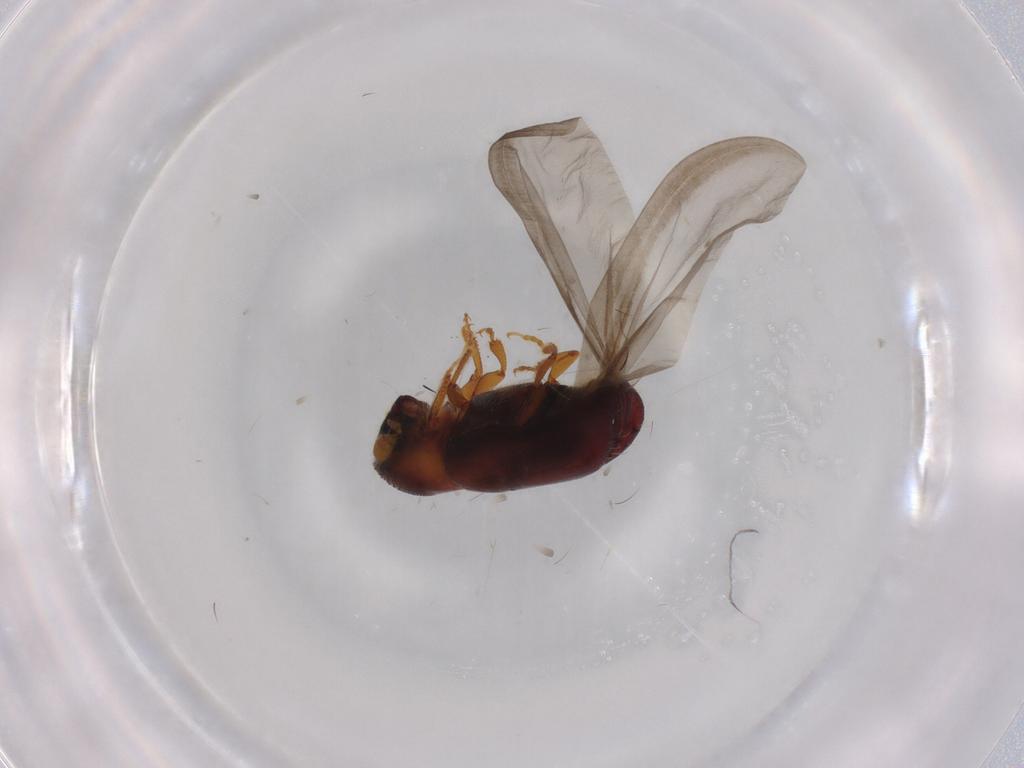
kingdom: Animalia
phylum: Arthropoda
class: Insecta
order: Coleoptera
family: Curculionidae
